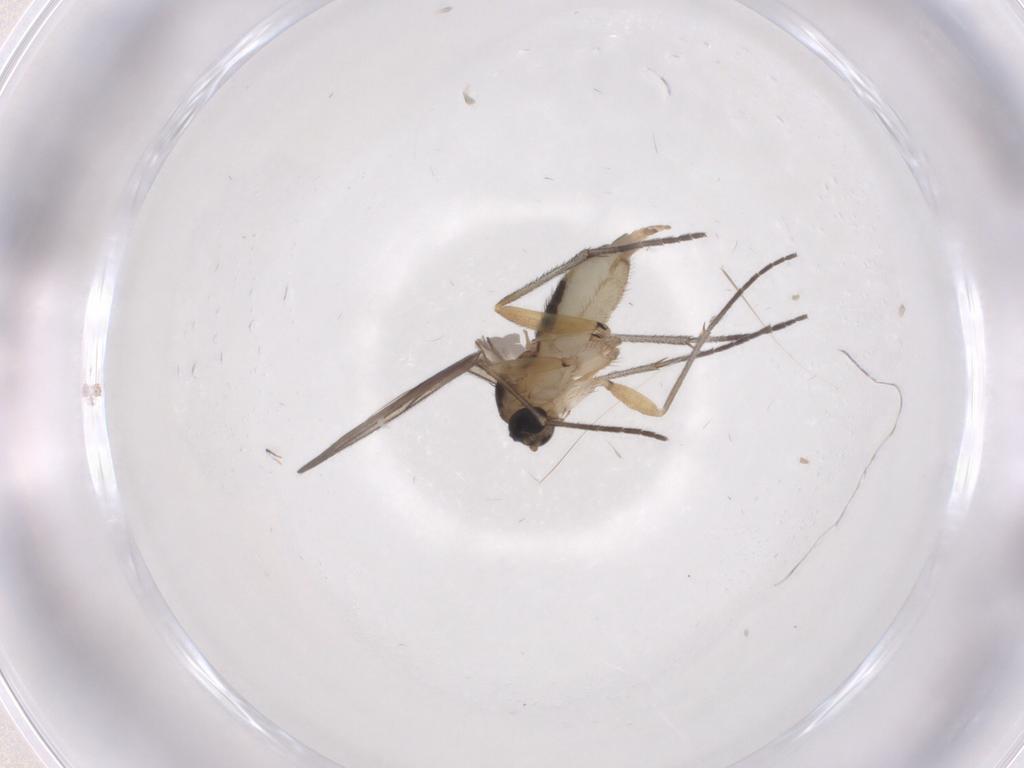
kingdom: Animalia
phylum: Arthropoda
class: Insecta
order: Diptera
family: Sciaridae
